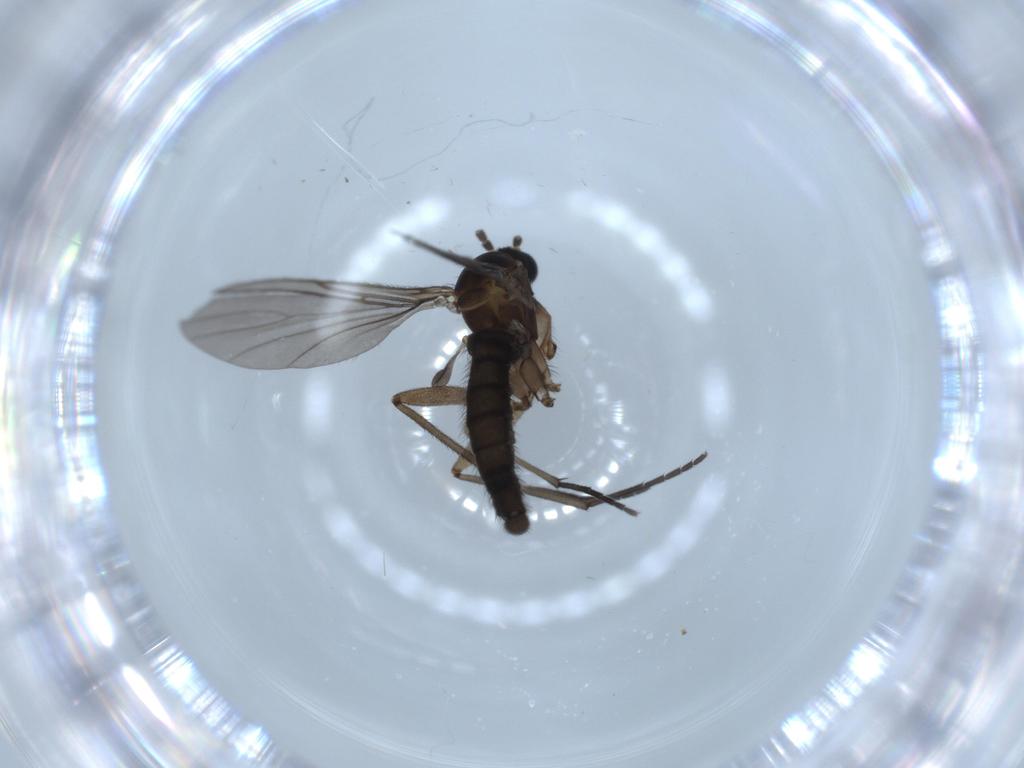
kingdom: Animalia
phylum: Arthropoda
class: Insecta
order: Diptera
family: Sciaridae
